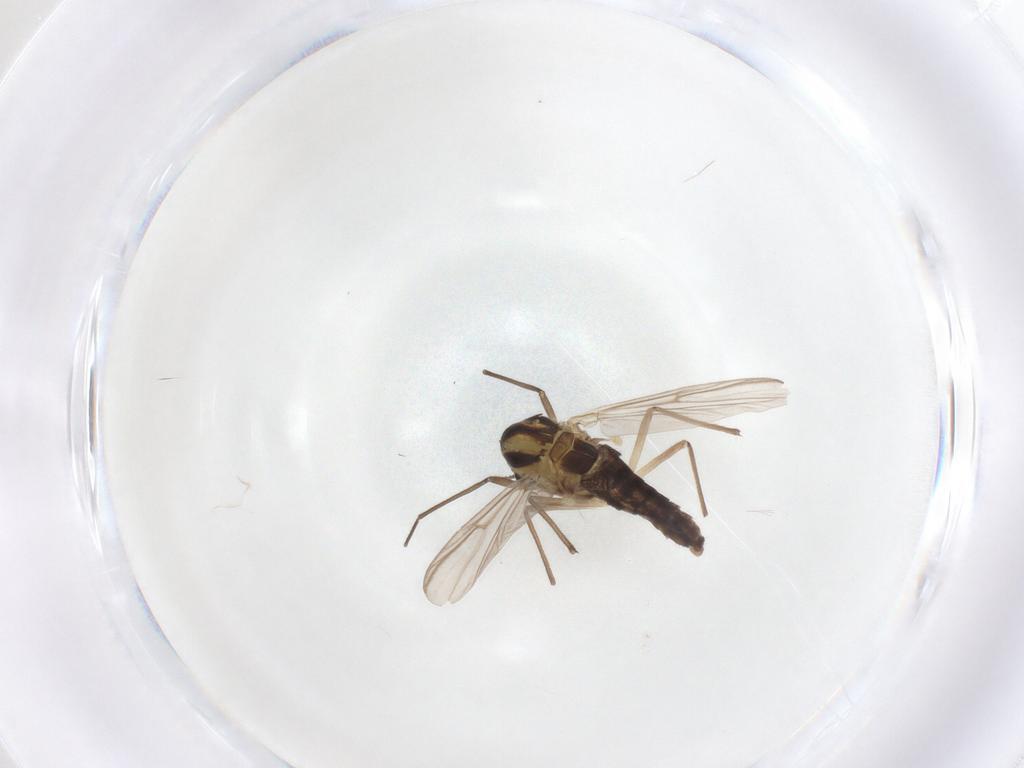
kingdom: Animalia
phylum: Arthropoda
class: Insecta
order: Diptera
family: Chironomidae
